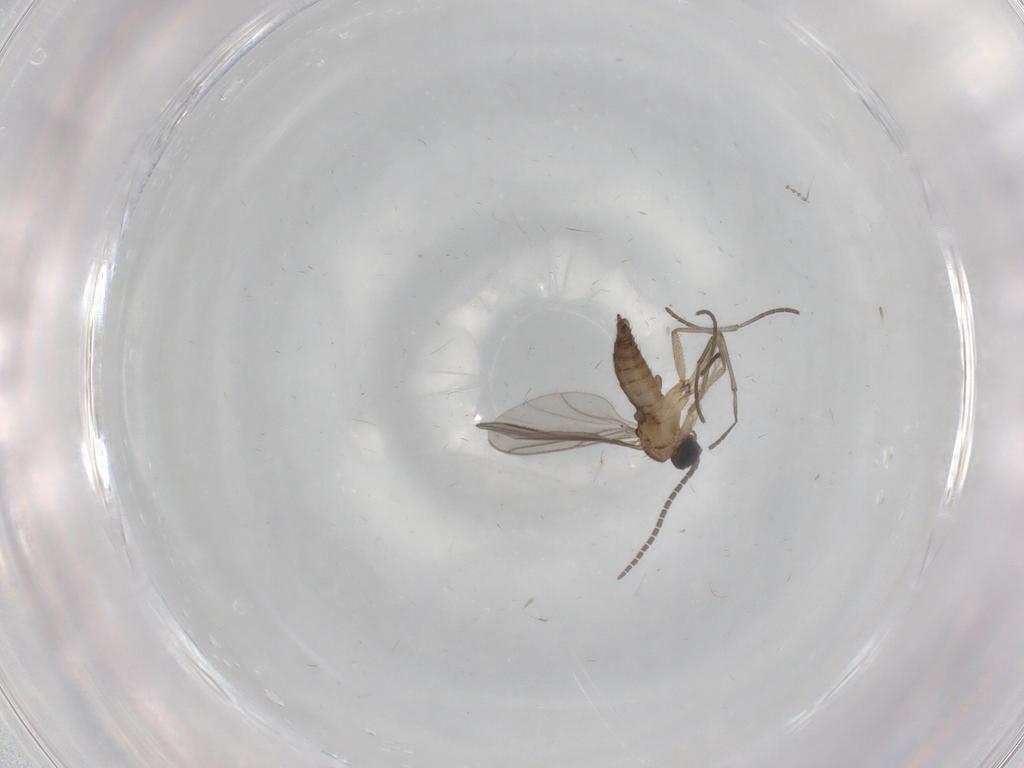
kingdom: Animalia
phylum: Arthropoda
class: Insecta
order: Diptera
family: Sciaridae
